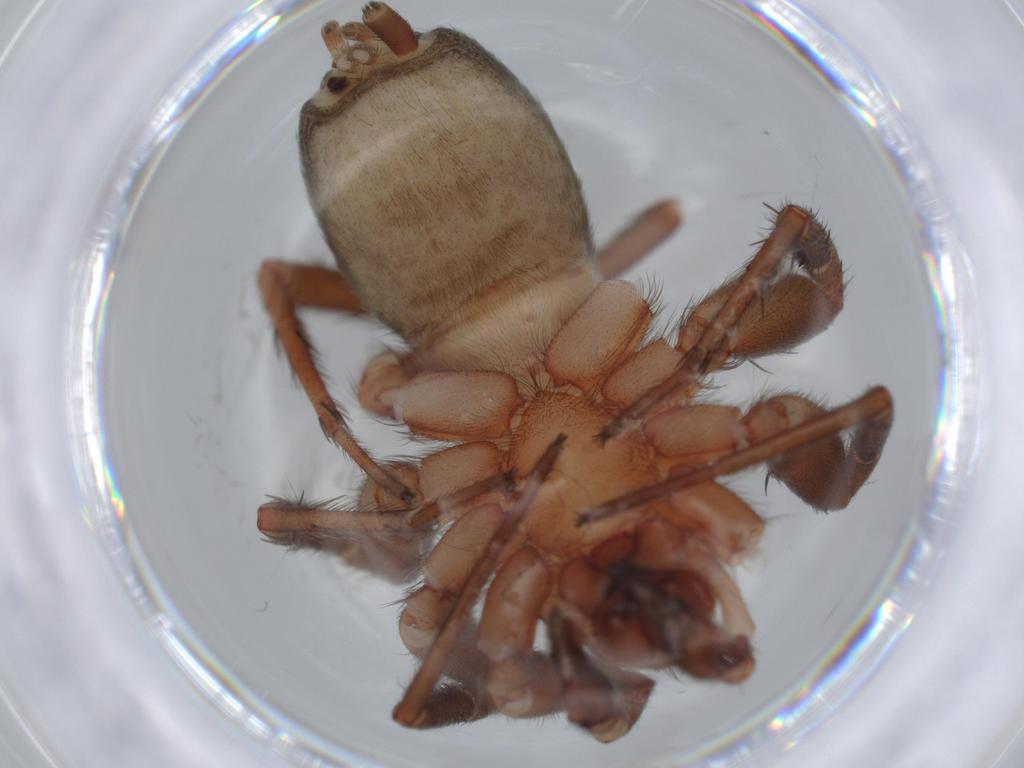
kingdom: Animalia
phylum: Arthropoda
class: Arachnida
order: Araneae
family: Gnaphosidae
